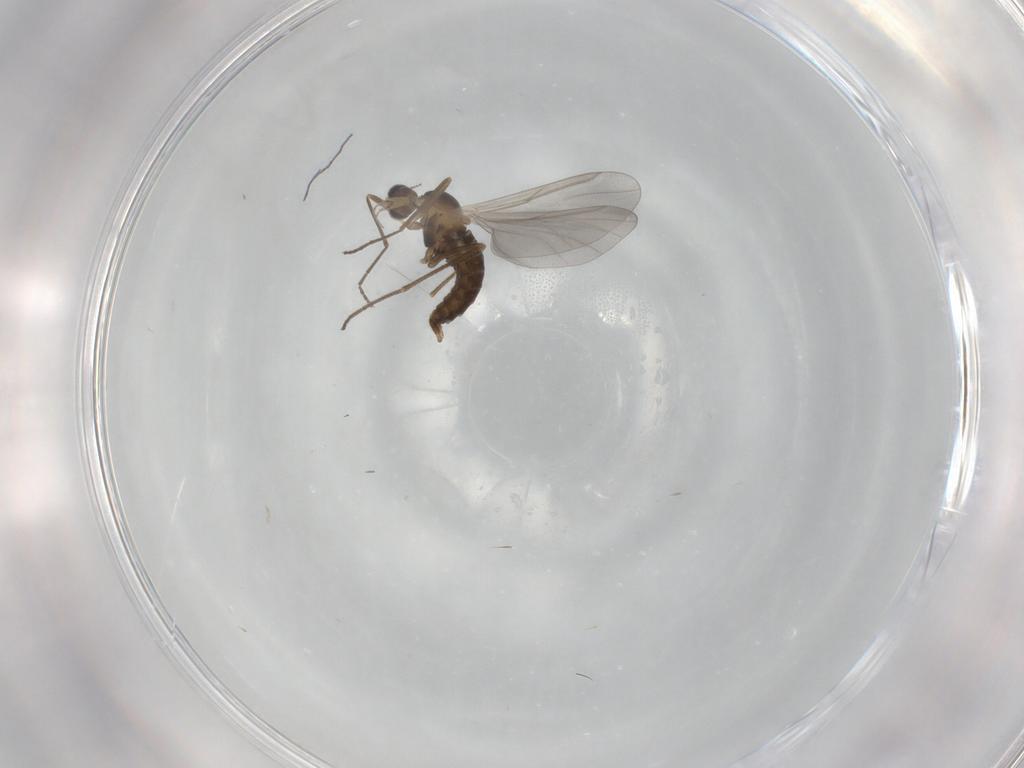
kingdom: Animalia
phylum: Arthropoda
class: Insecta
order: Diptera
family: Cecidomyiidae
